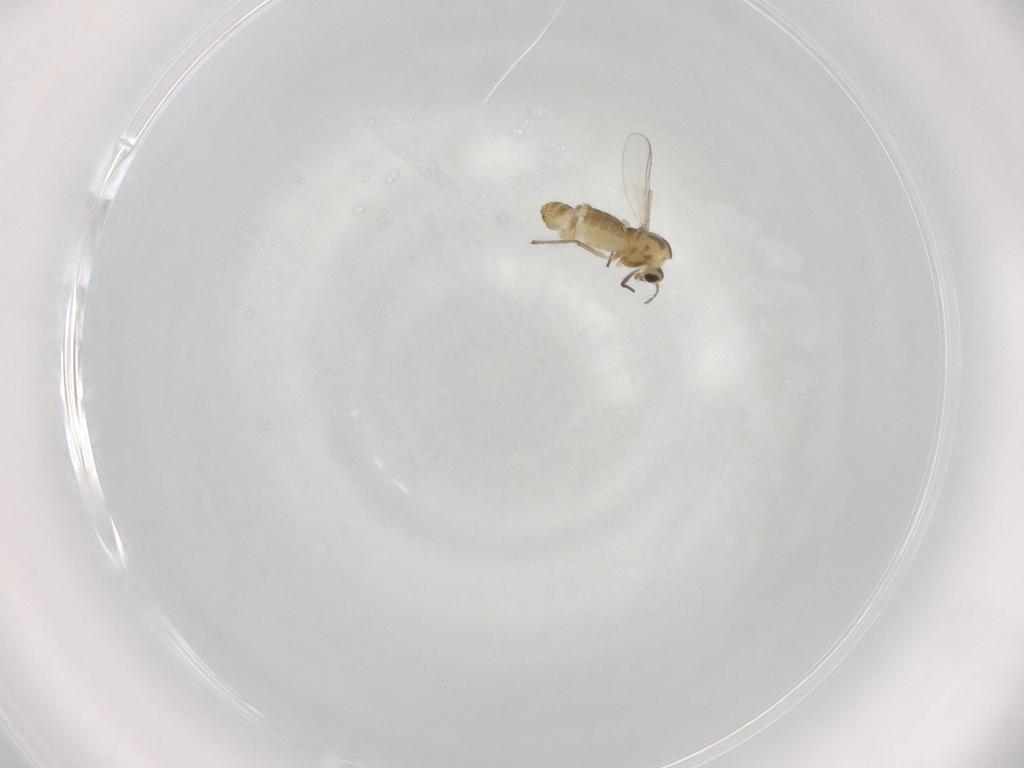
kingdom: Animalia
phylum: Arthropoda
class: Insecta
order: Diptera
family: Chironomidae
